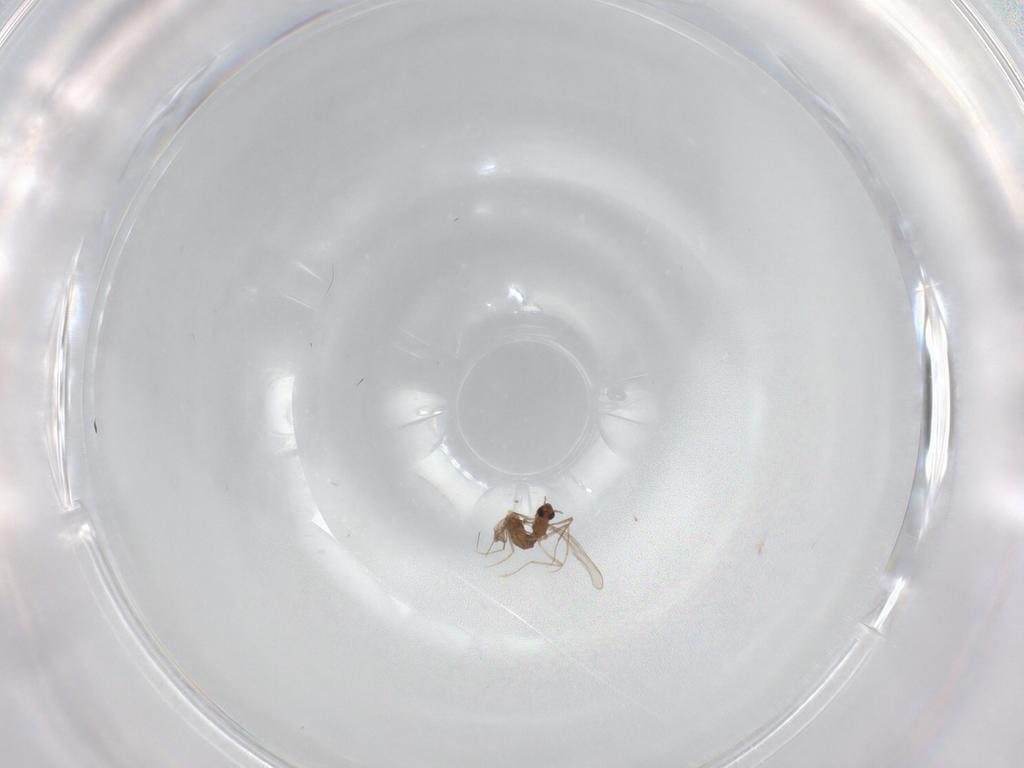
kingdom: Animalia
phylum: Arthropoda
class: Insecta
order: Diptera
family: Chironomidae
